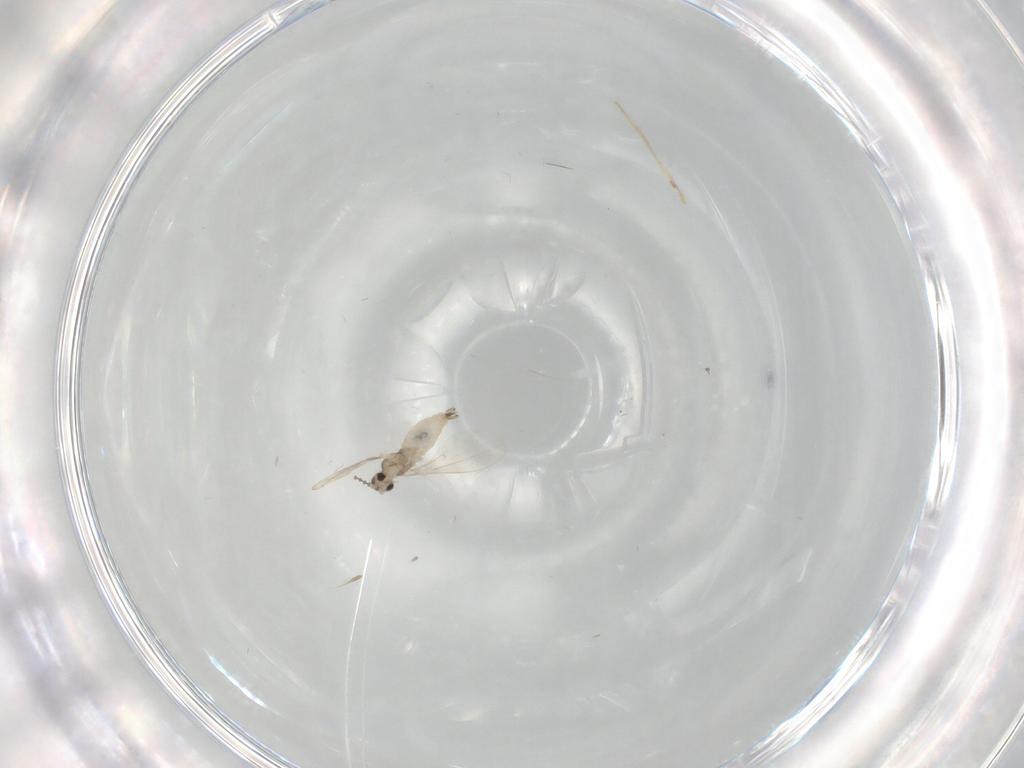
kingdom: Animalia
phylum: Arthropoda
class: Insecta
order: Diptera
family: Cecidomyiidae
